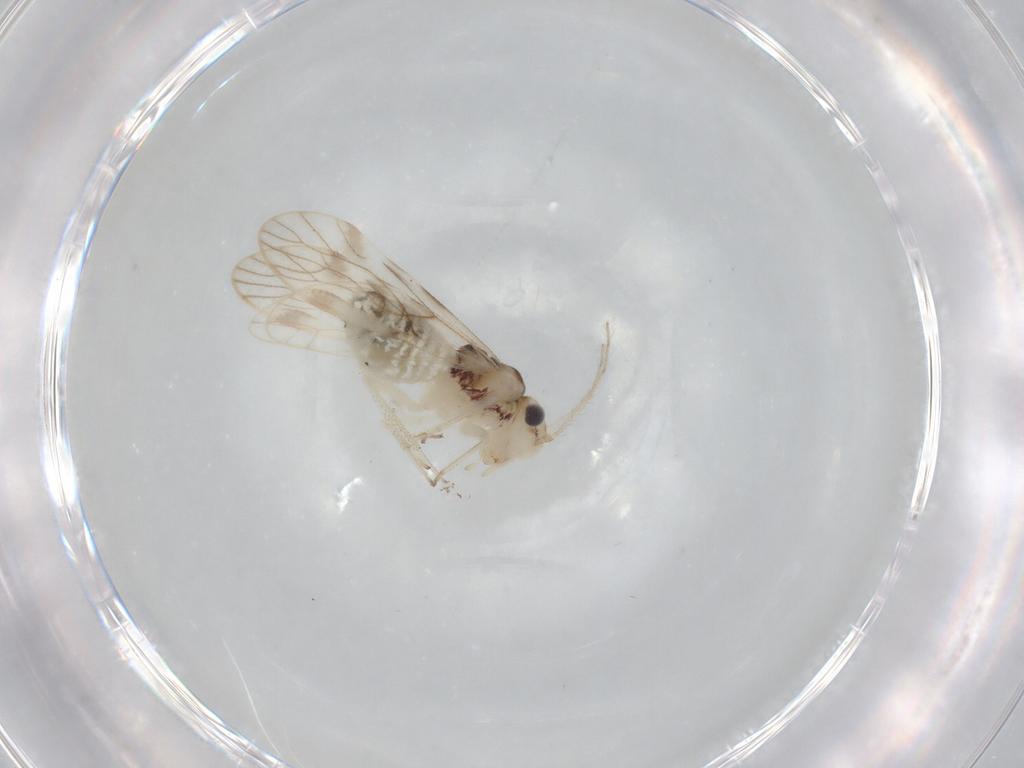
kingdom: Animalia
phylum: Arthropoda
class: Insecta
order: Psocodea
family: Caeciliusidae
